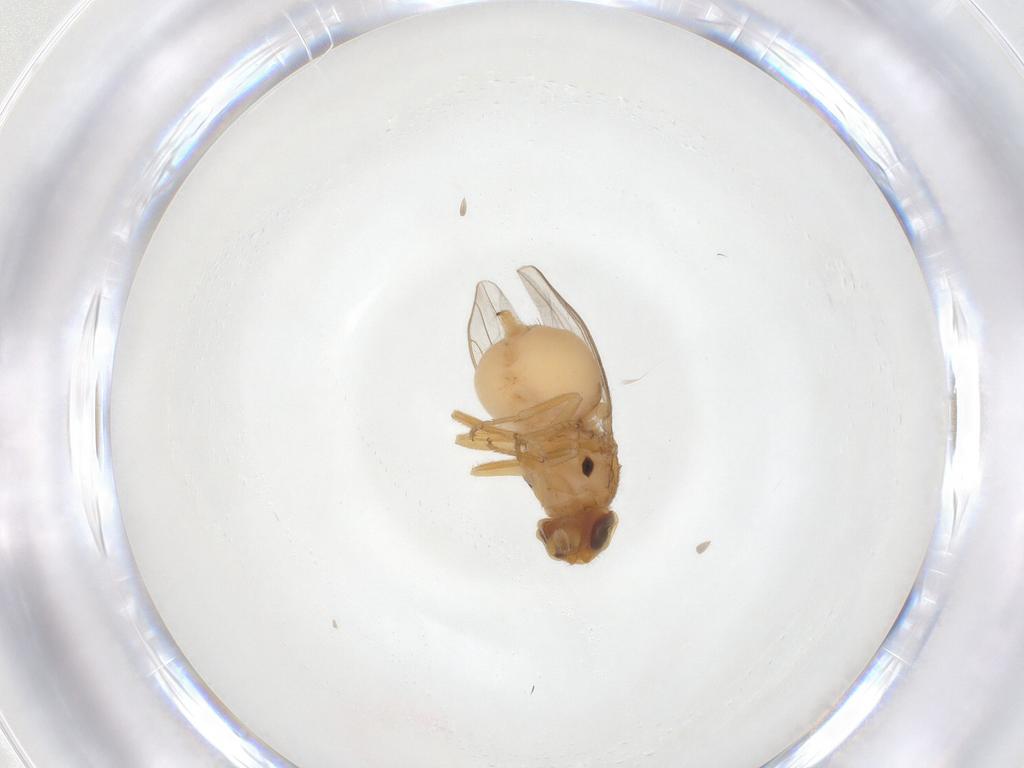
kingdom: Animalia
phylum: Arthropoda
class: Insecta
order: Diptera
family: Chloropidae
